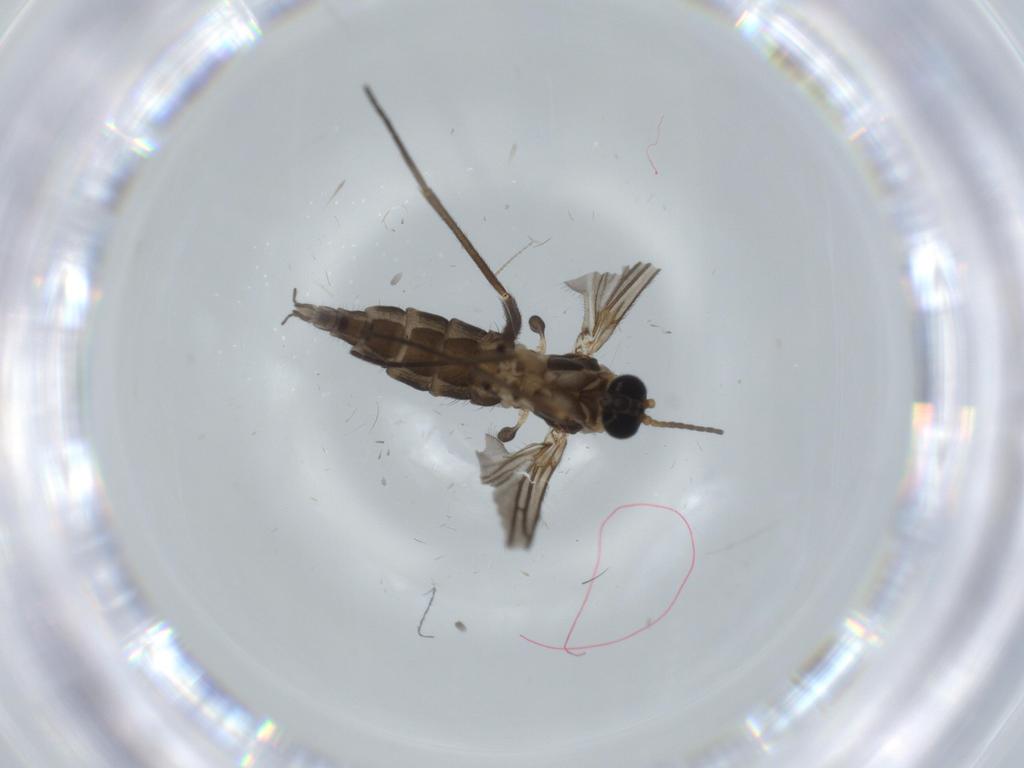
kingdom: Animalia
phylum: Arthropoda
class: Insecta
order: Diptera
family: Sciaridae
